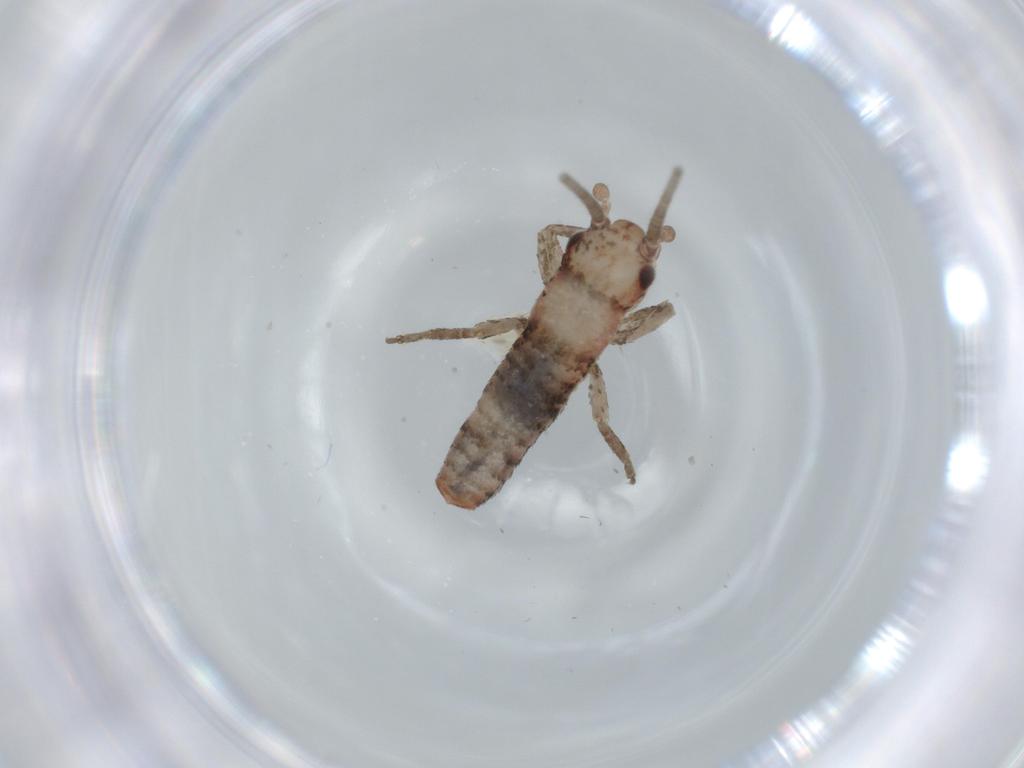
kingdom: Animalia
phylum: Arthropoda
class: Insecta
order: Orthoptera
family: Trigonidiidae
